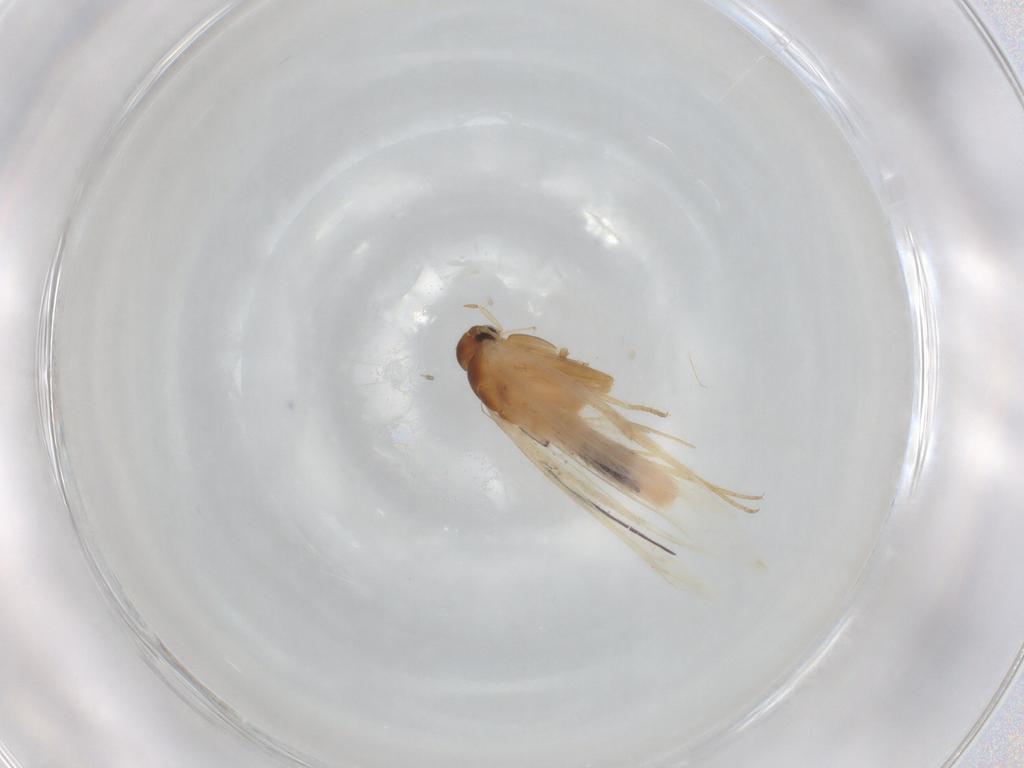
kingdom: Animalia
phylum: Arthropoda
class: Insecta
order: Lepidoptera
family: Gelechiidae
